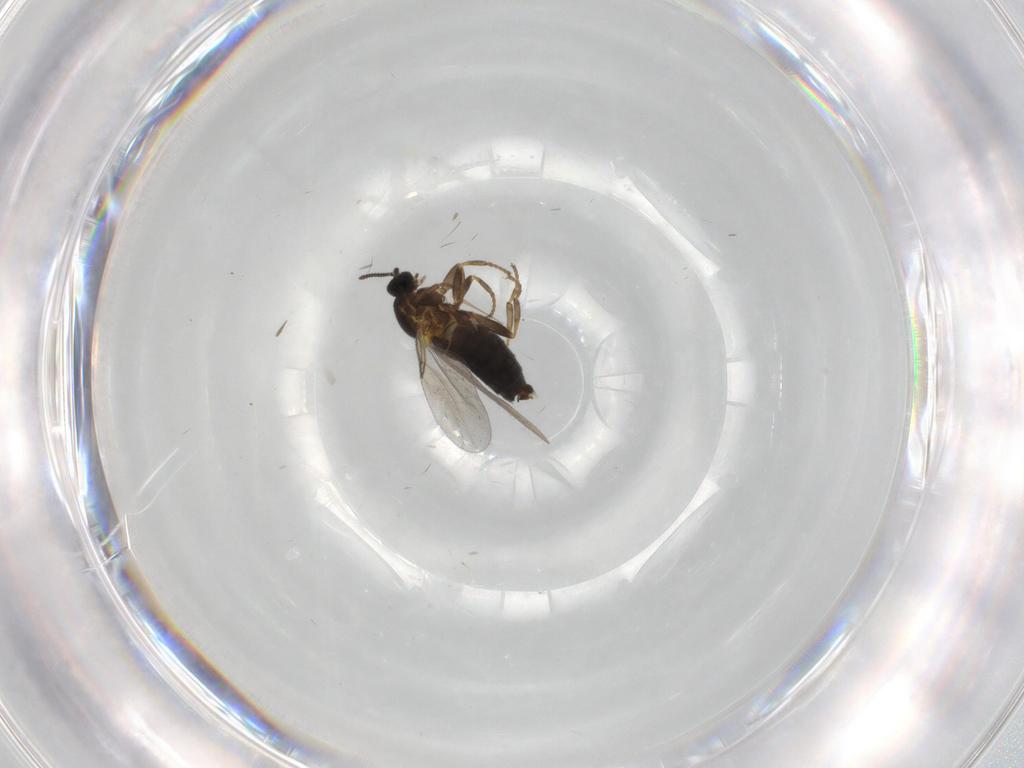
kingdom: Animalia
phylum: Arthropoda
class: Insecta
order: Diptera
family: Scatopsidae
